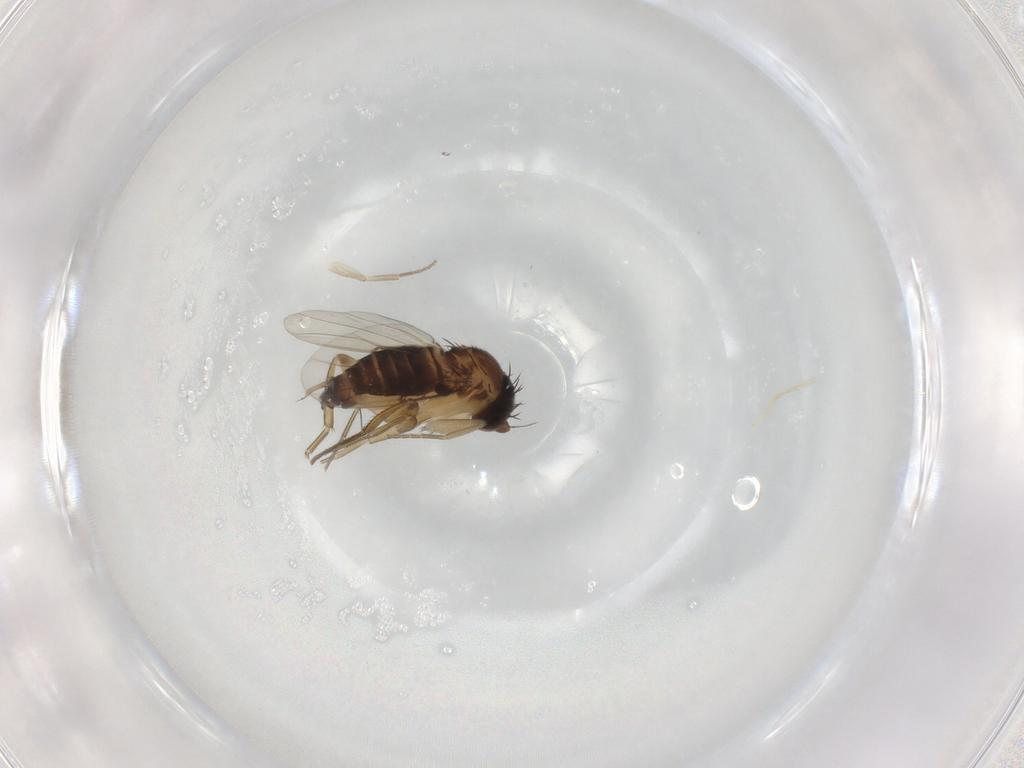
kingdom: Animalia
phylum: Arthropoda
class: Insecta
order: Diptera
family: Phoridae
